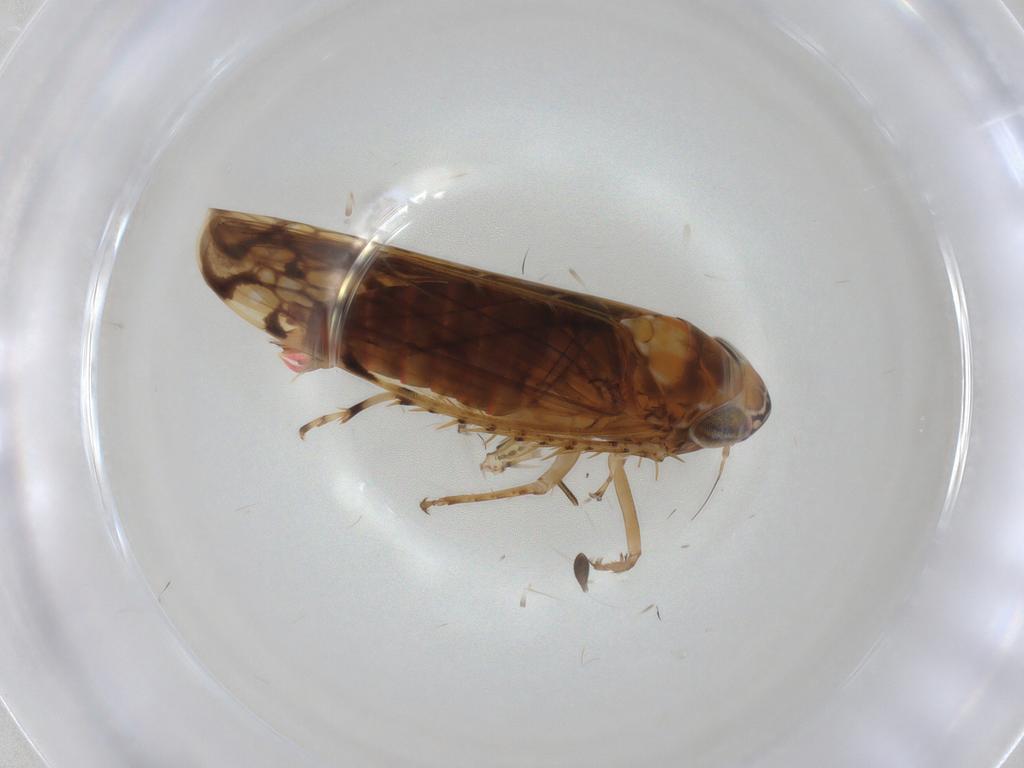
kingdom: Animalia
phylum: Arthropoda
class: Insecta
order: Hemiptera
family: Cicadellidae
